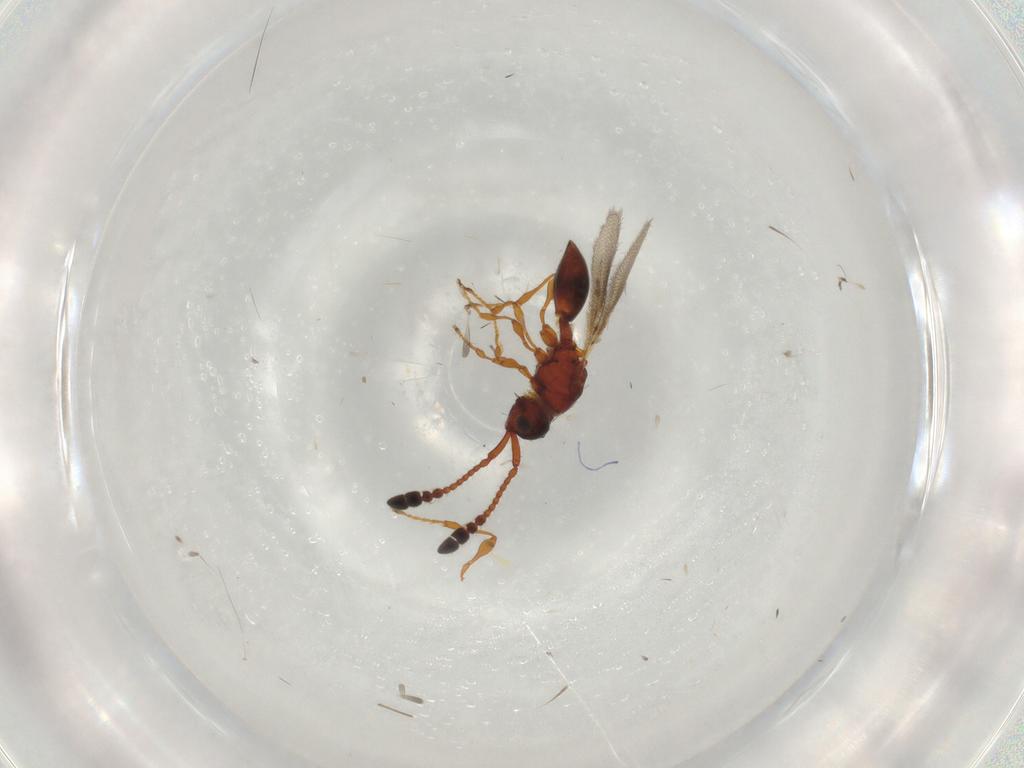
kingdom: Animalia
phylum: Arthropoda
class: Insecta
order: Hymenoptera
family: Diapriidae
